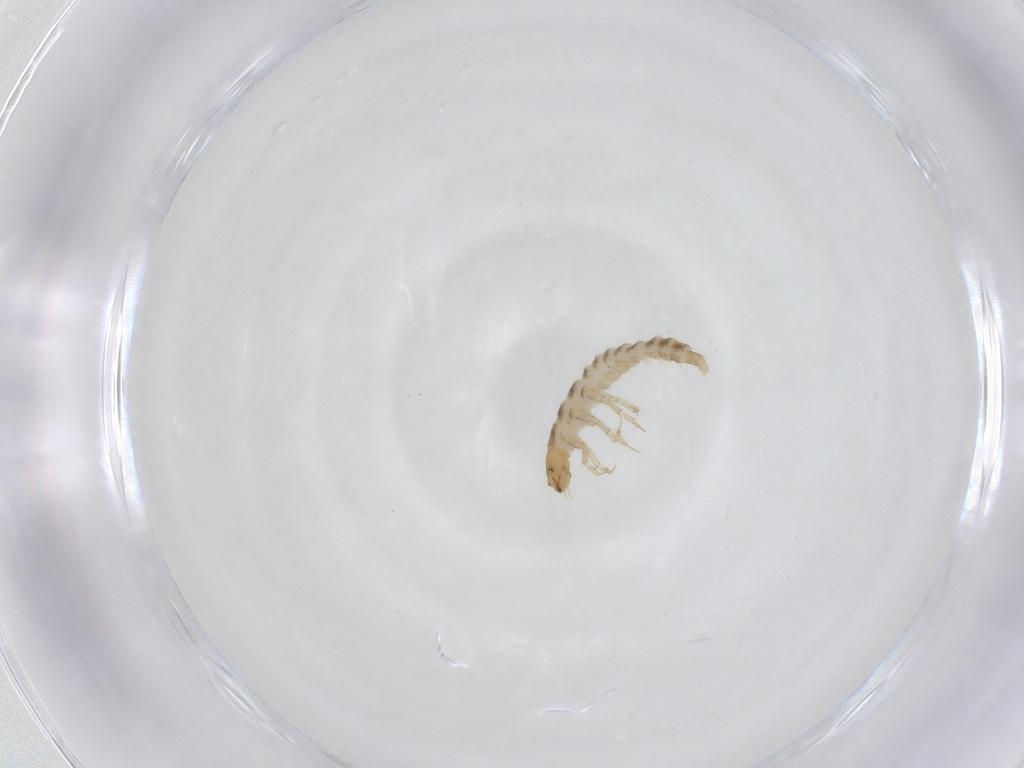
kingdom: Animalia
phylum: Arthropoda
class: Insecta
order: Coleoptera
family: Staphylinidae
